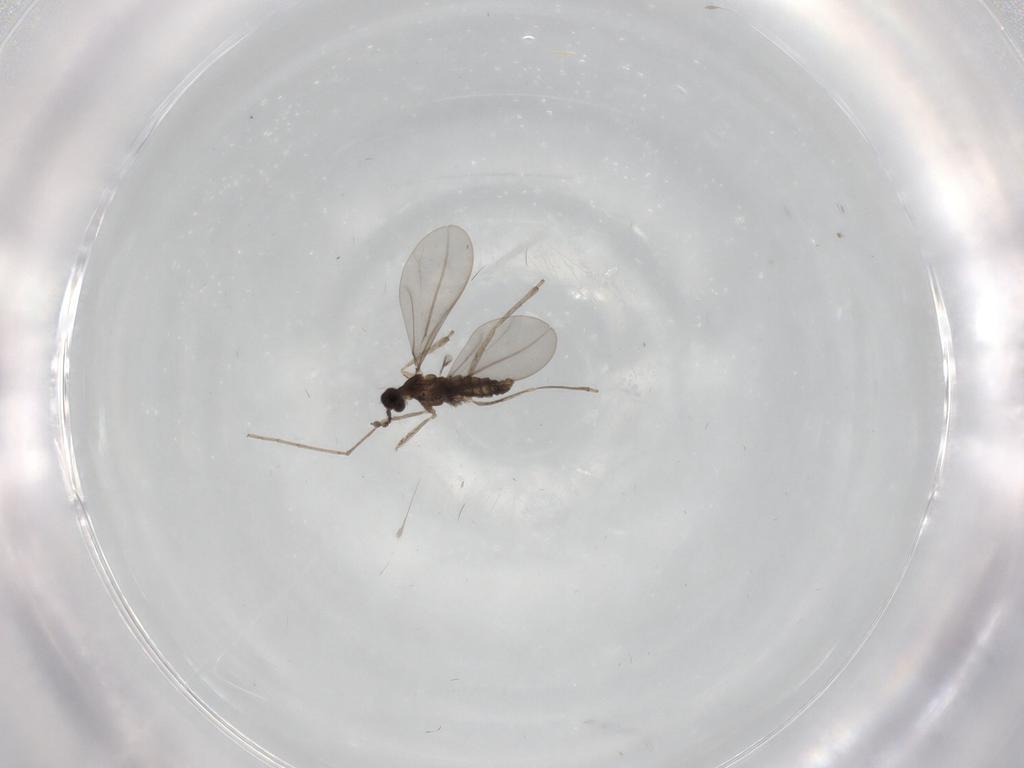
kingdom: Animalia
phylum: Arthropoda
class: Insecta
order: Diptera
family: Cecidomyiidae
